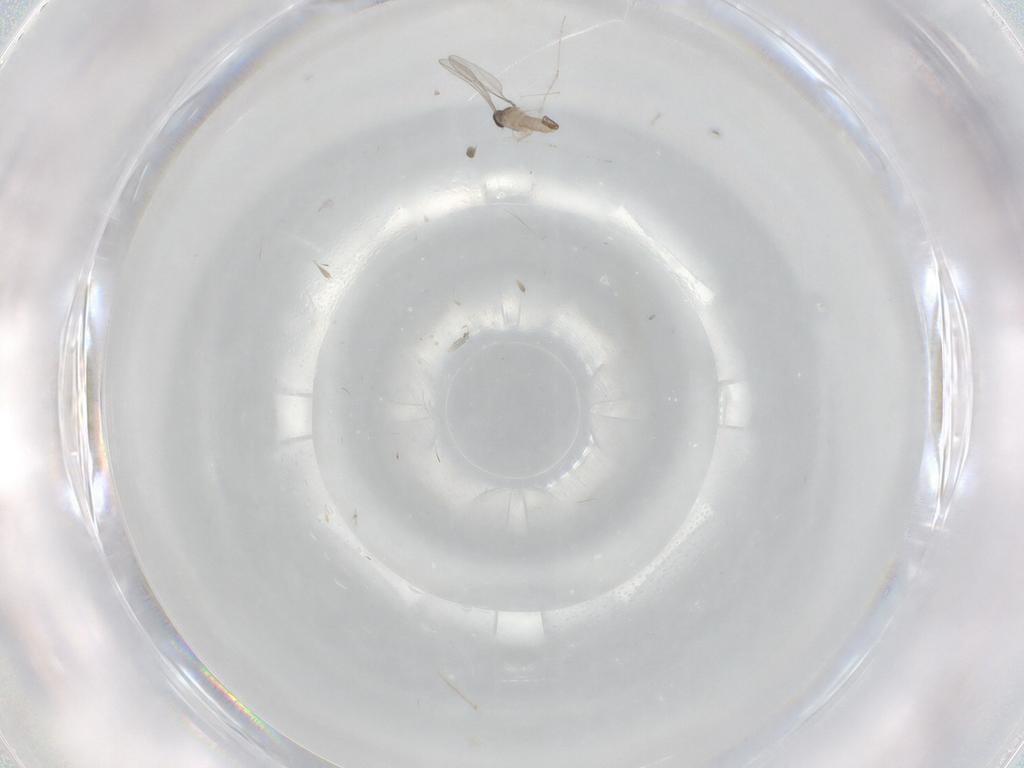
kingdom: Animalia
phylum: Arthropoda
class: Insecta
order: Diptera
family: Cecidomyiidae
